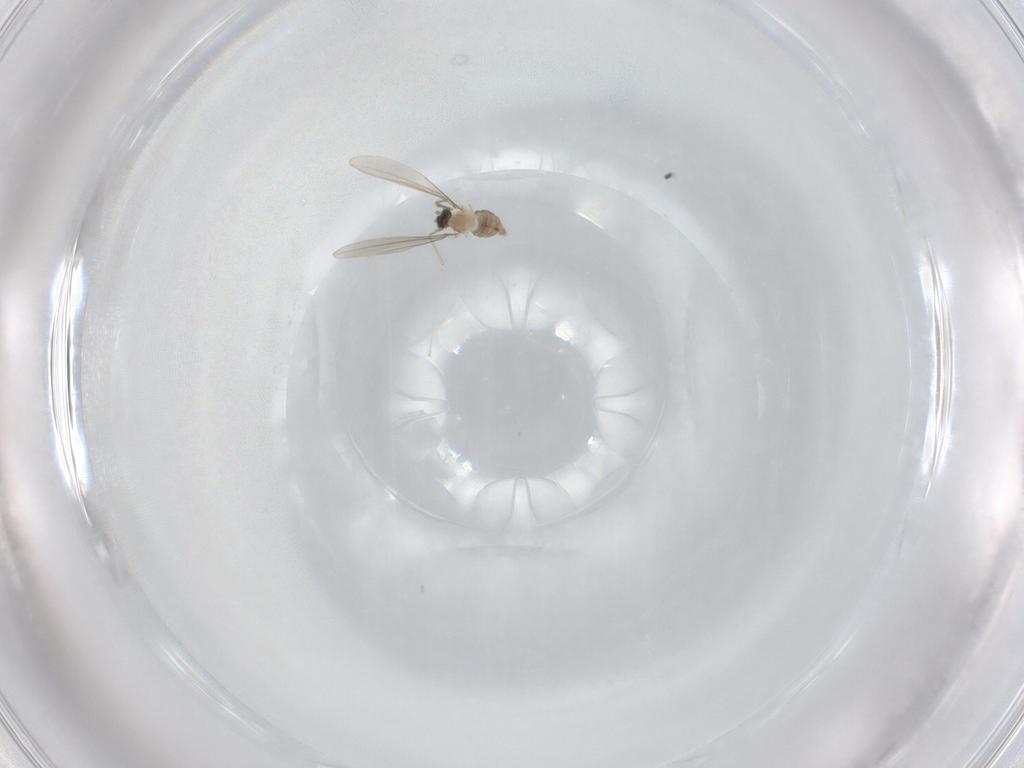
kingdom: Animalia
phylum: Arthropoda
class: Insecta
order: Diptera
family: Cecidomyiidae
